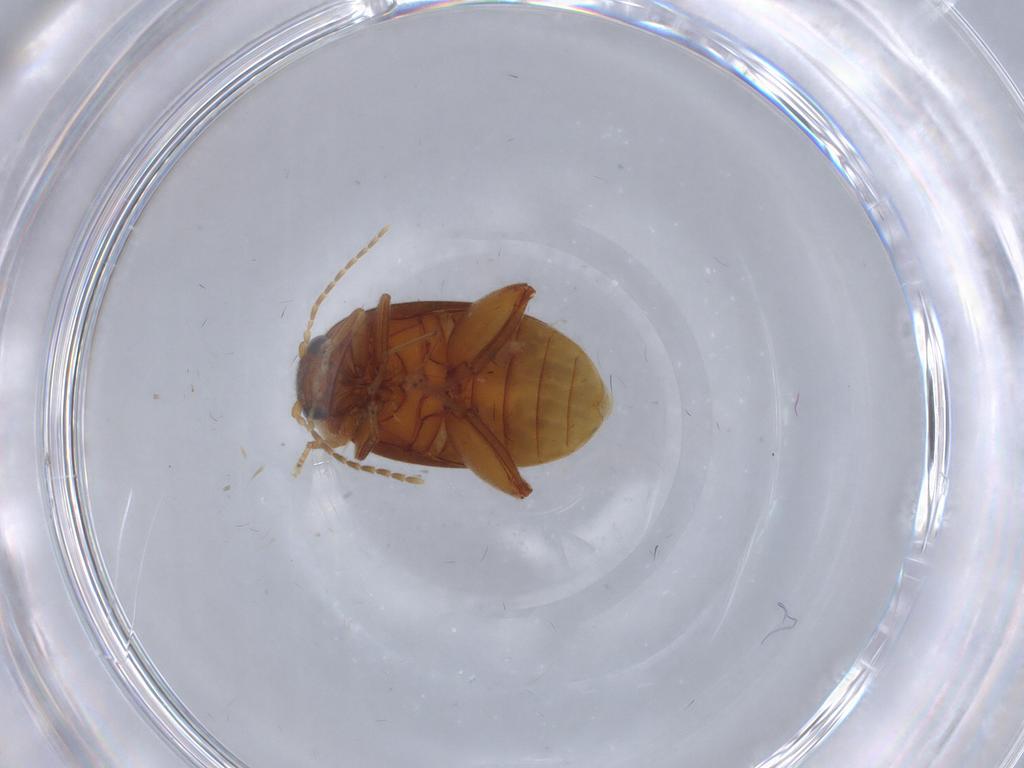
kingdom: Animalia
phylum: Arthropoda
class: Insecta
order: Coleoptera
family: Scirtidae
